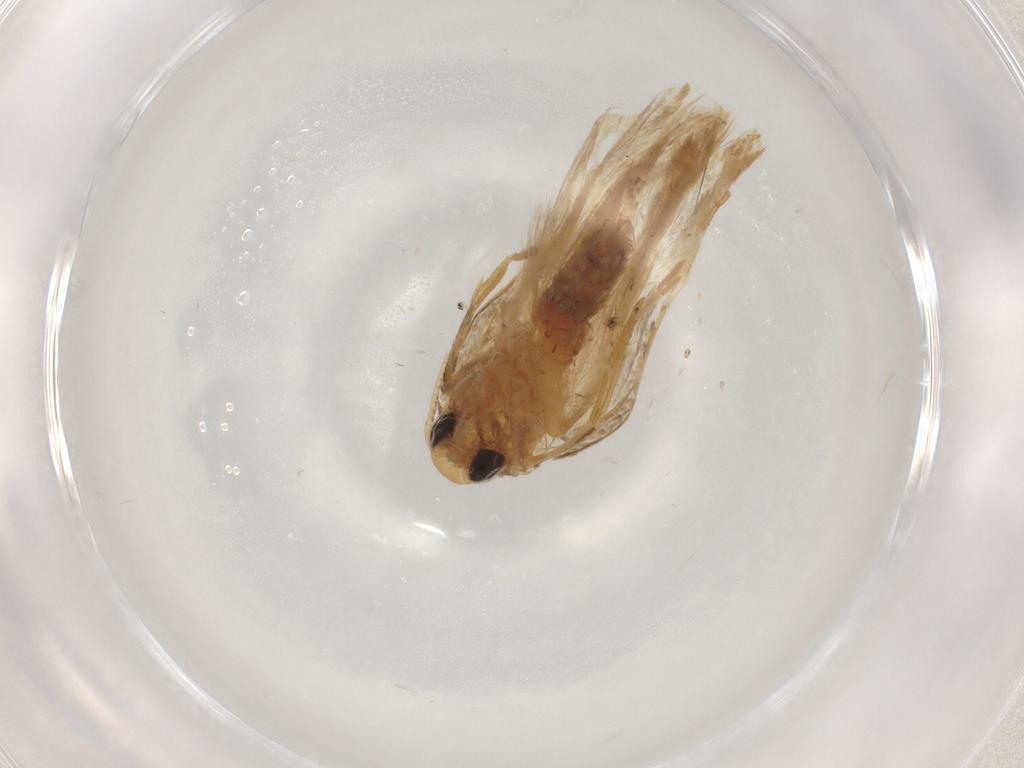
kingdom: Animalia
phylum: Arthropoda
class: Insecta
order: Lepidoptera
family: Depressariidae
